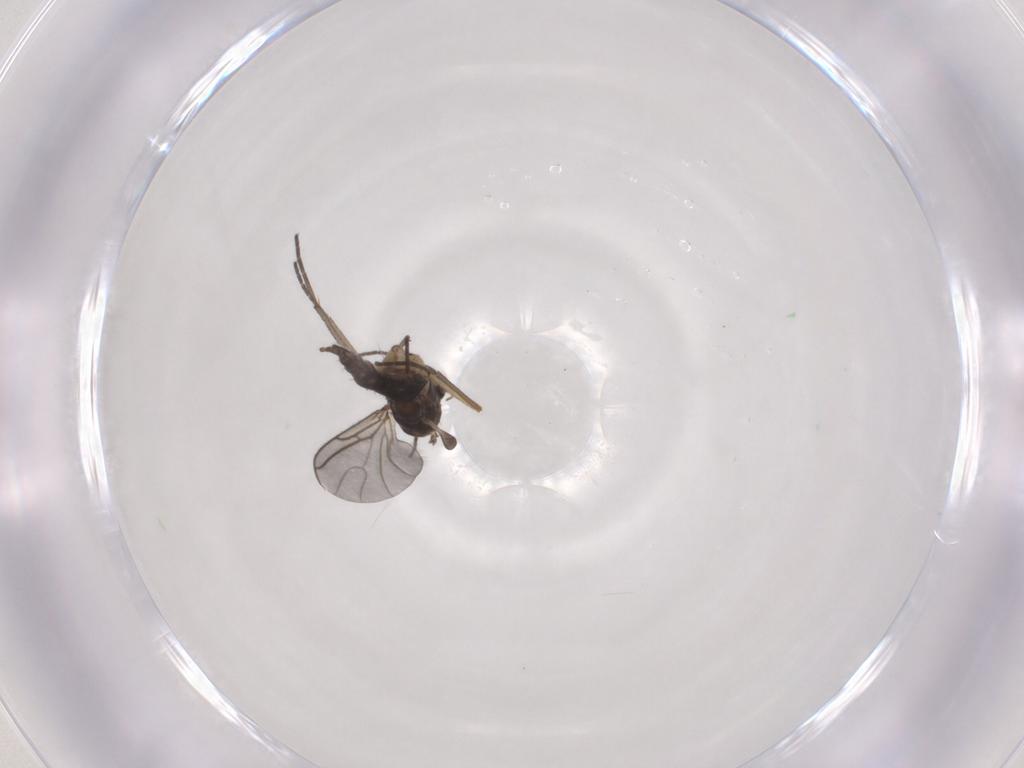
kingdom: Animalia
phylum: Arthropoda
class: Insecta
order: Diptera
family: Sciaridae
